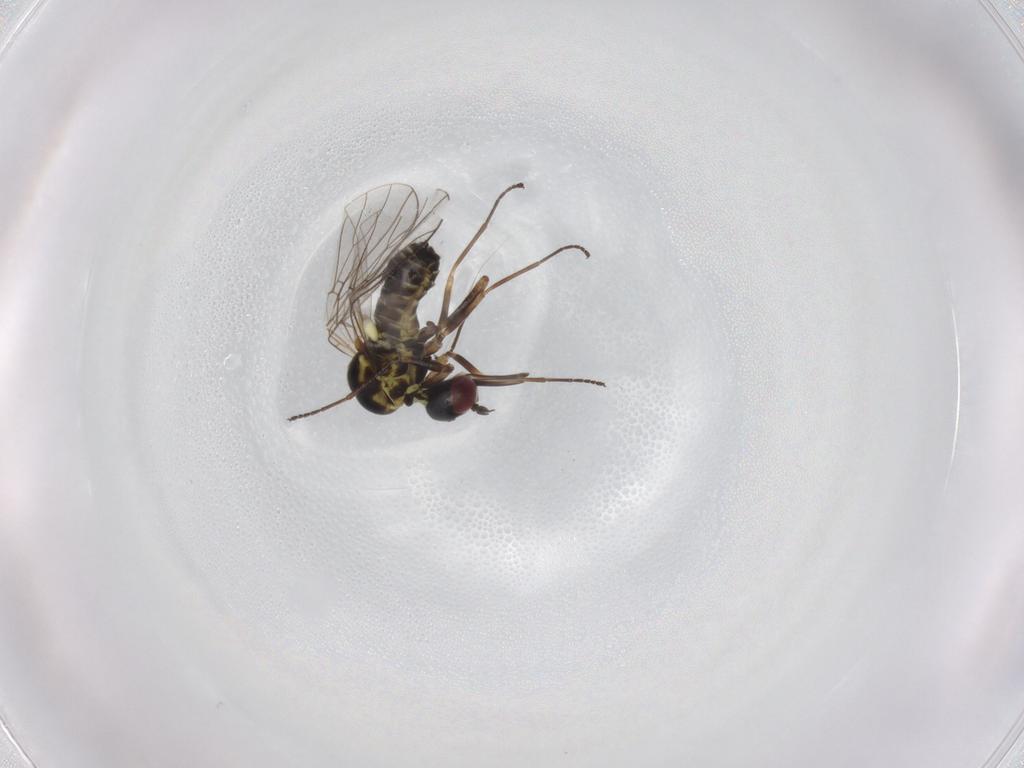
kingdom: Animalia
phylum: Arthropoda
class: Insecta
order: Diptera
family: Bombyliidae
